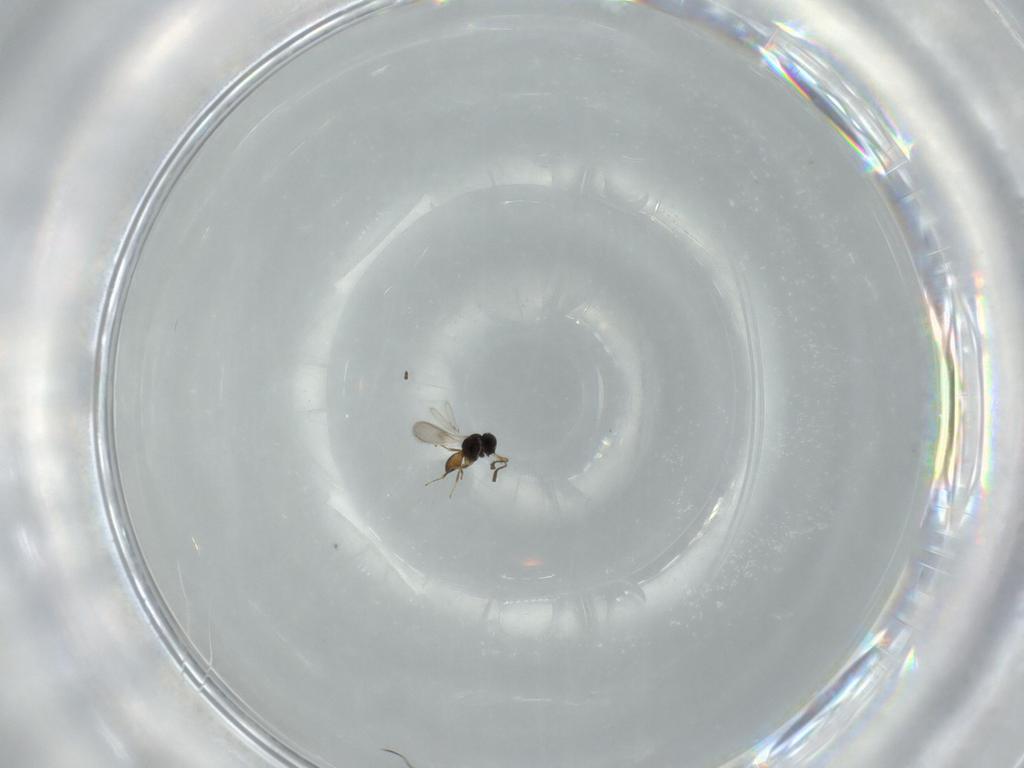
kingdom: Animalia
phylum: Arthropoda
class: Insecta
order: Hymenoptera
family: Scelionidae
